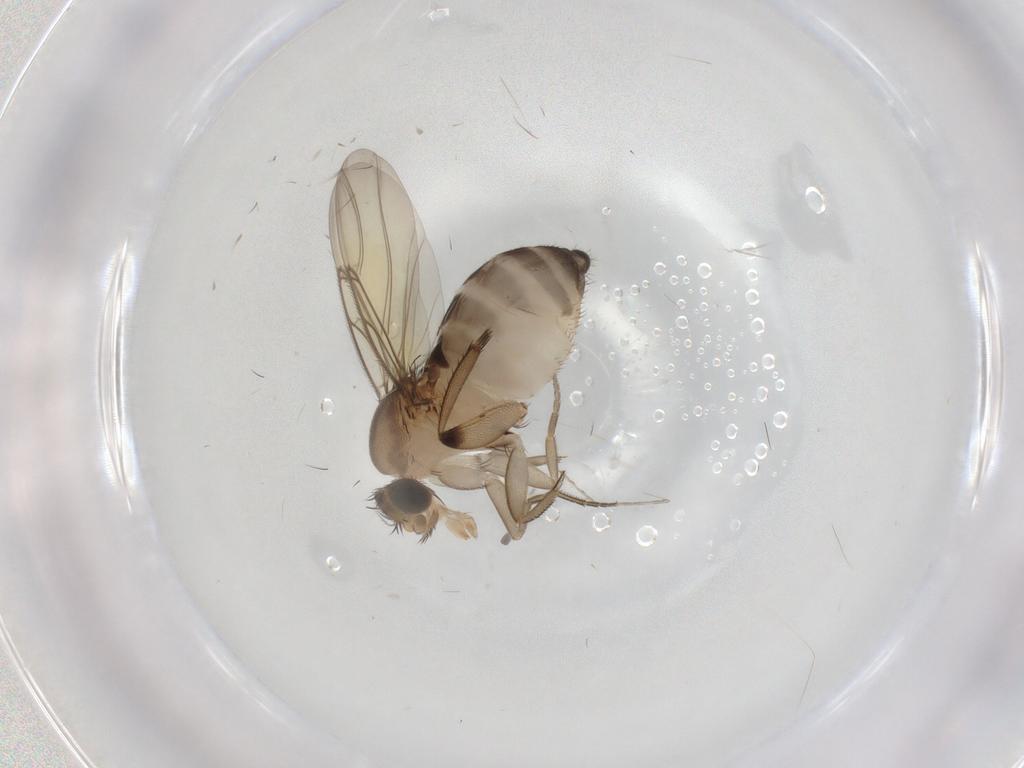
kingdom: Animalia
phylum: Arthropoda
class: Insecta
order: Diptera
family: Phoridae
